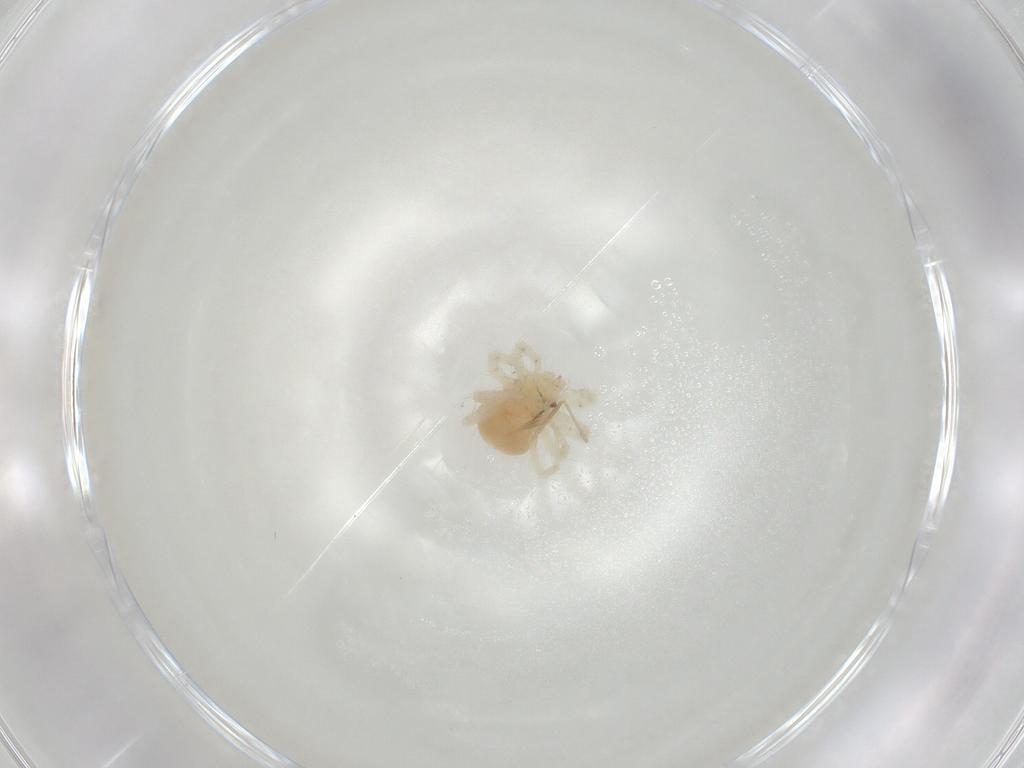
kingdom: Animalia
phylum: Arthropoda
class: Arachnida
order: Trombidiformes
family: Anystidae
